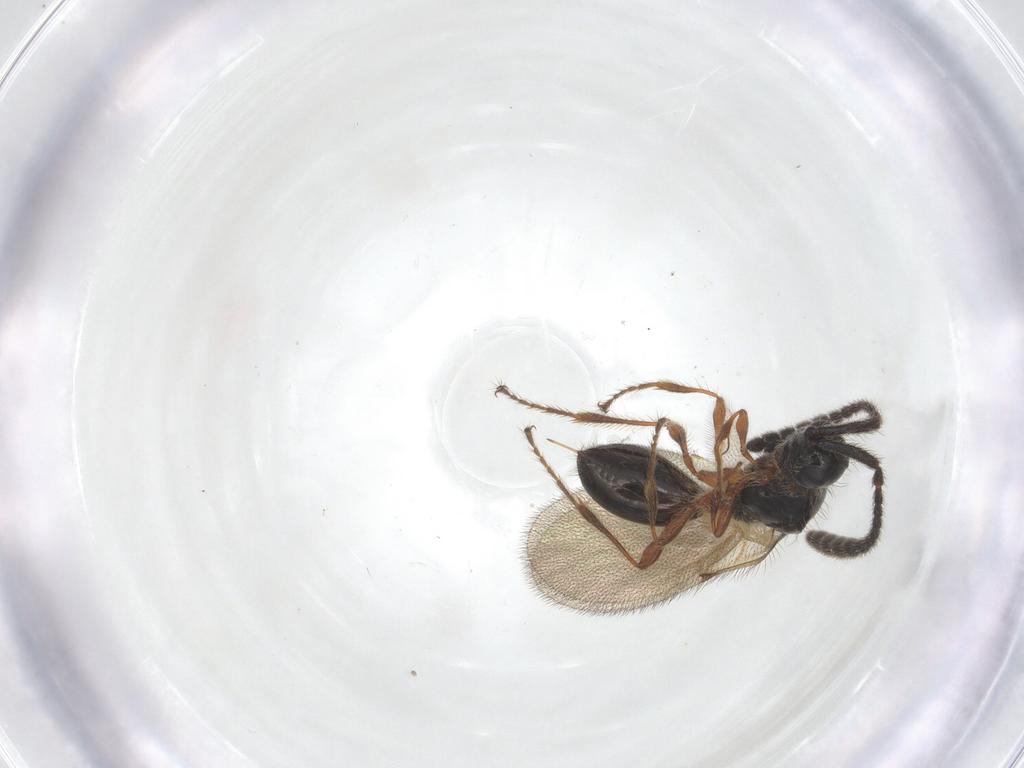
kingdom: Animalia
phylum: Arthropoda
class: Insecta
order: Hymenoptera
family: Diapriidae
